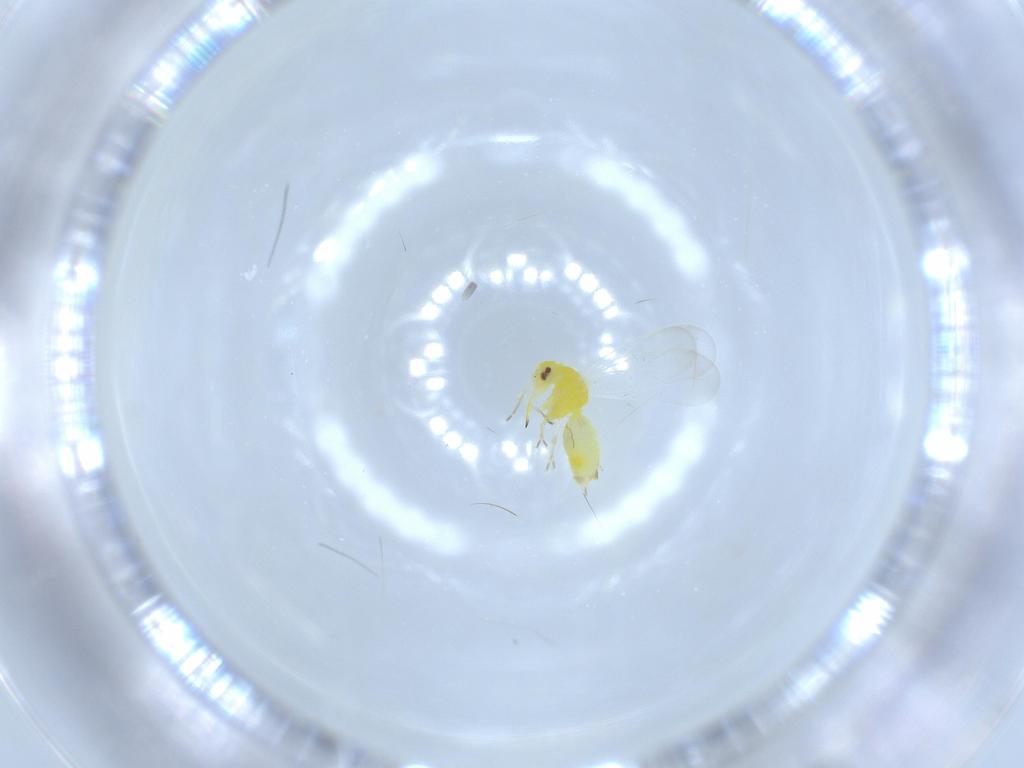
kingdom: Animalia
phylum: Arthropoda
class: Insecta
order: Hemiptera
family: Aleyrodidae
